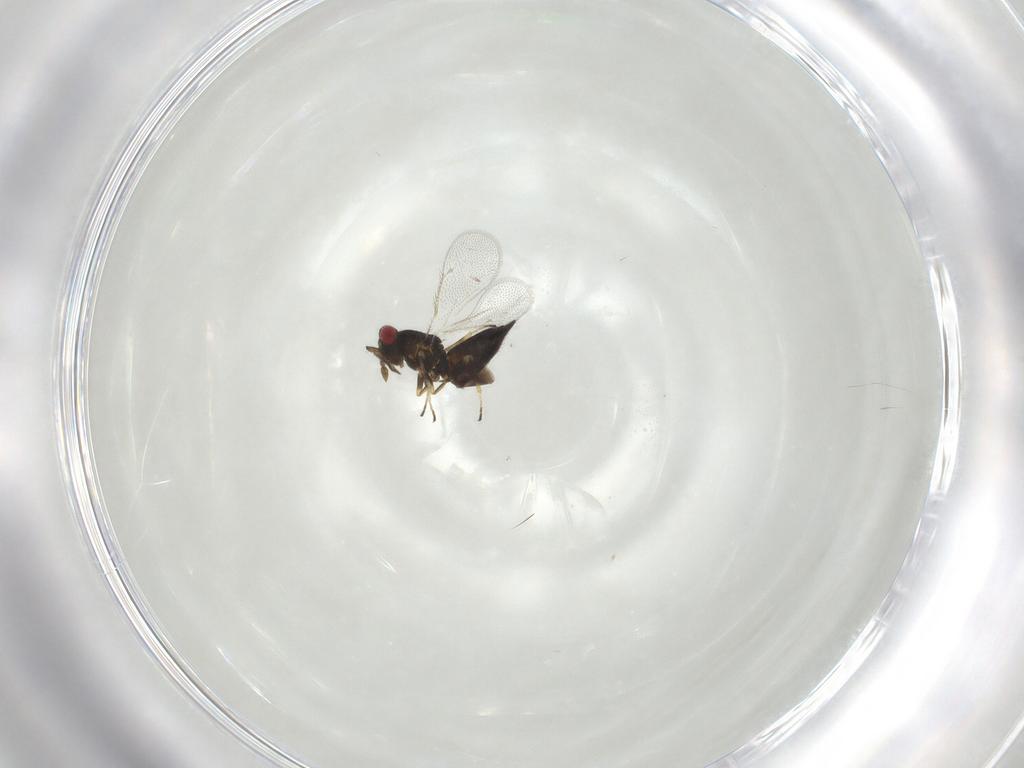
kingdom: Animalia
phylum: Arthropoda
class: Insecta
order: Hymenoptera
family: Eulophidae
